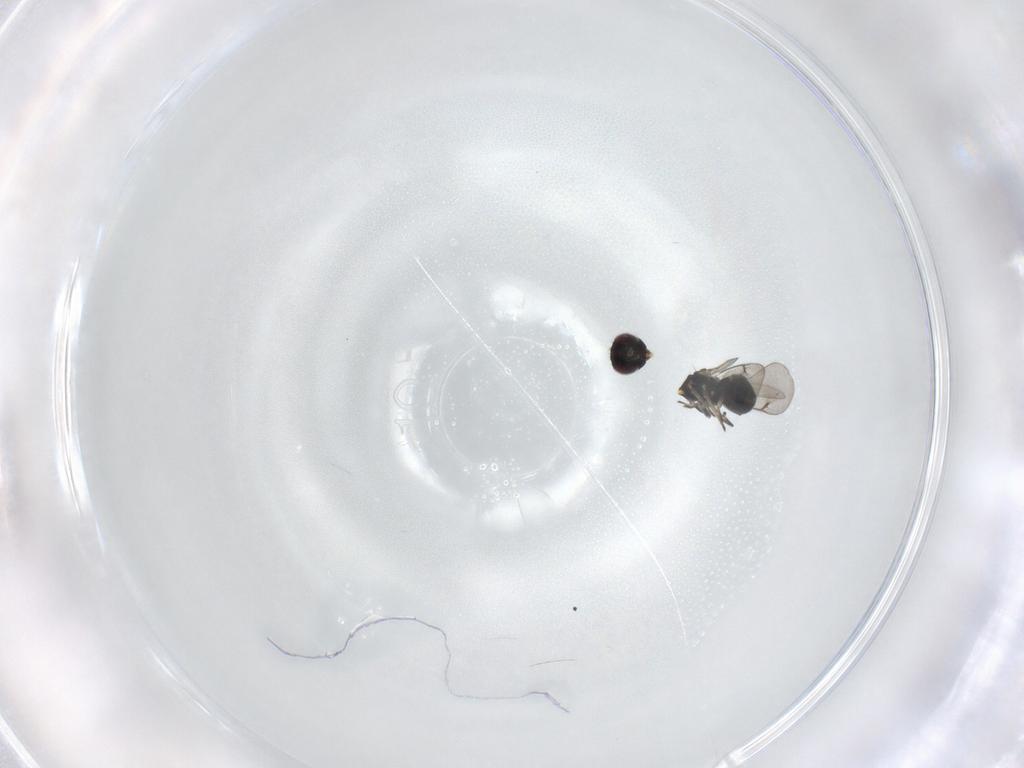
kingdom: Animalia
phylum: Arthropoda
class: Insecta
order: Hymenoptera
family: Eulophidae
